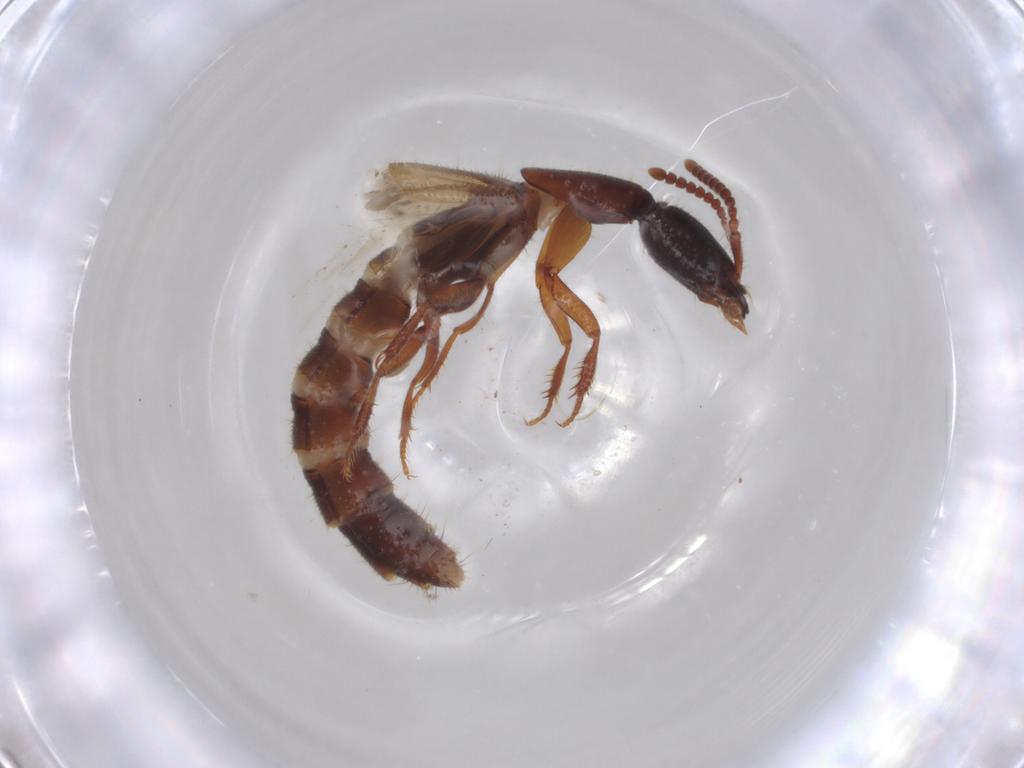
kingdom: Animalia
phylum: Arthropoda
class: Insecta
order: Coleoptera
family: Staphylinidae
